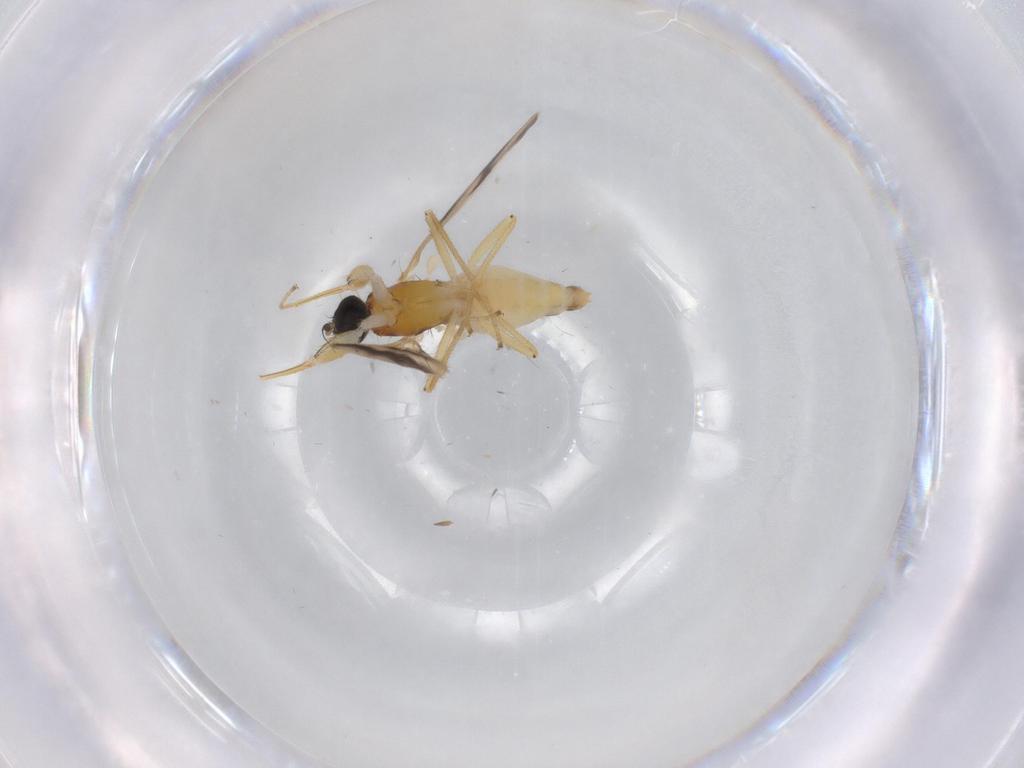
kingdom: Animalia
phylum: Arthropoda
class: Insecta
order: Diptera
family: Empididae
